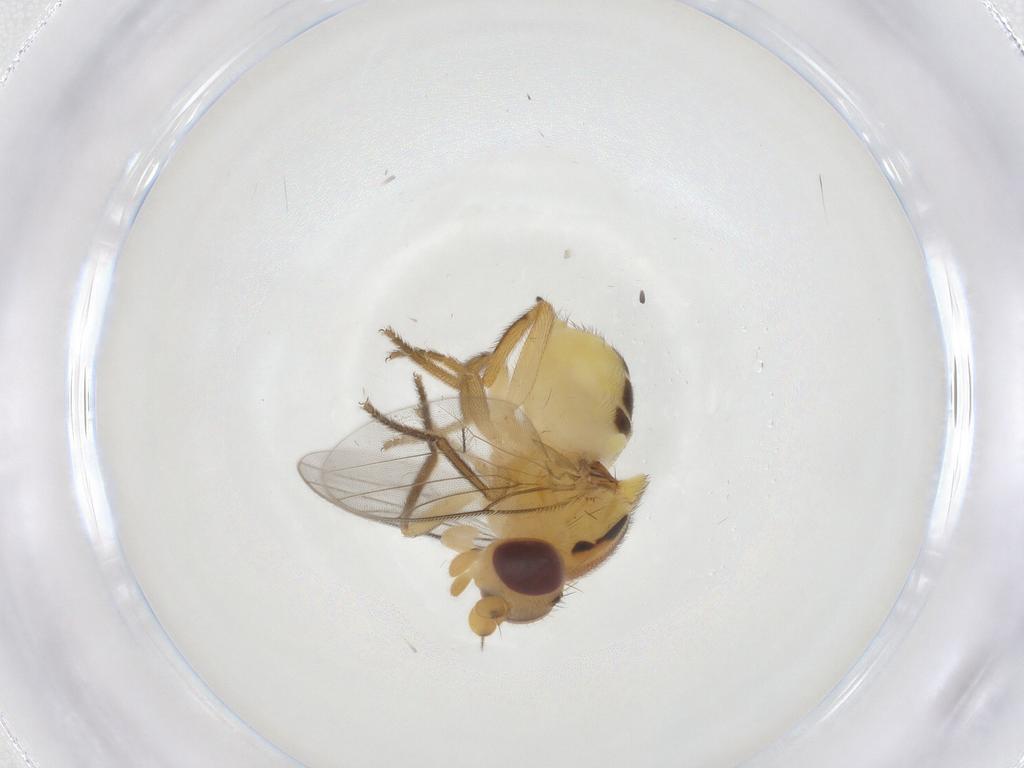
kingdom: Animalia
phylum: Arthropoda
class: Insecta
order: Diptera
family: Chloropidae
